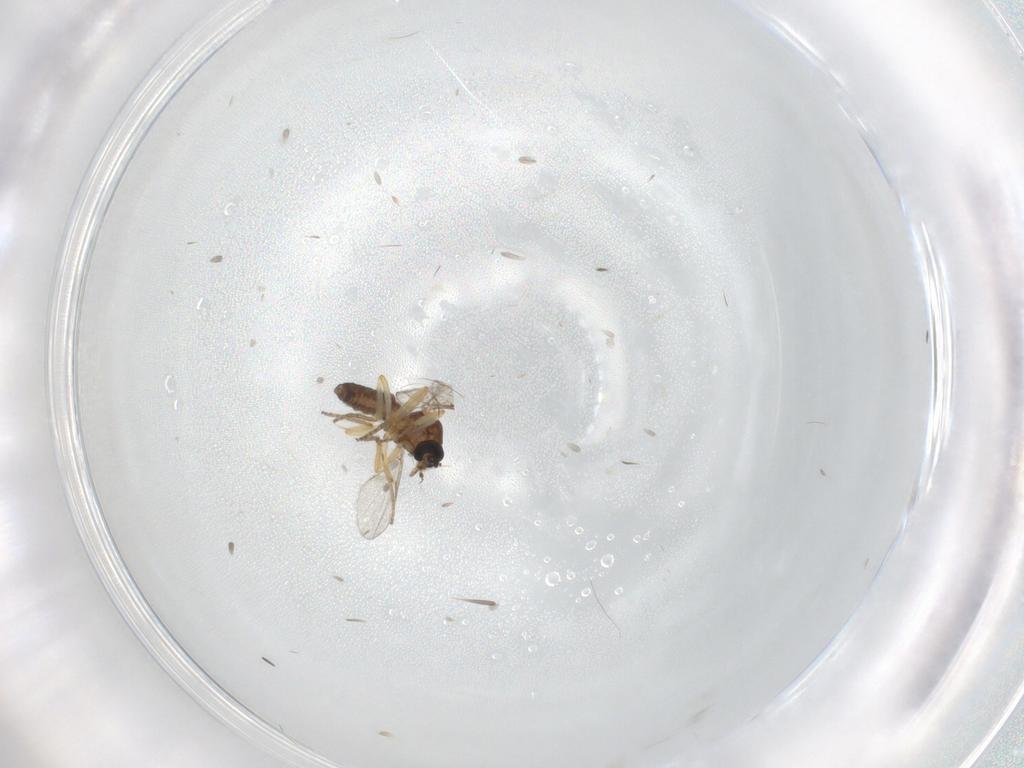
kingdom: Animalia
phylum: Arthropoda
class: Insecta
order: Diptera
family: Ceratopogonidae
